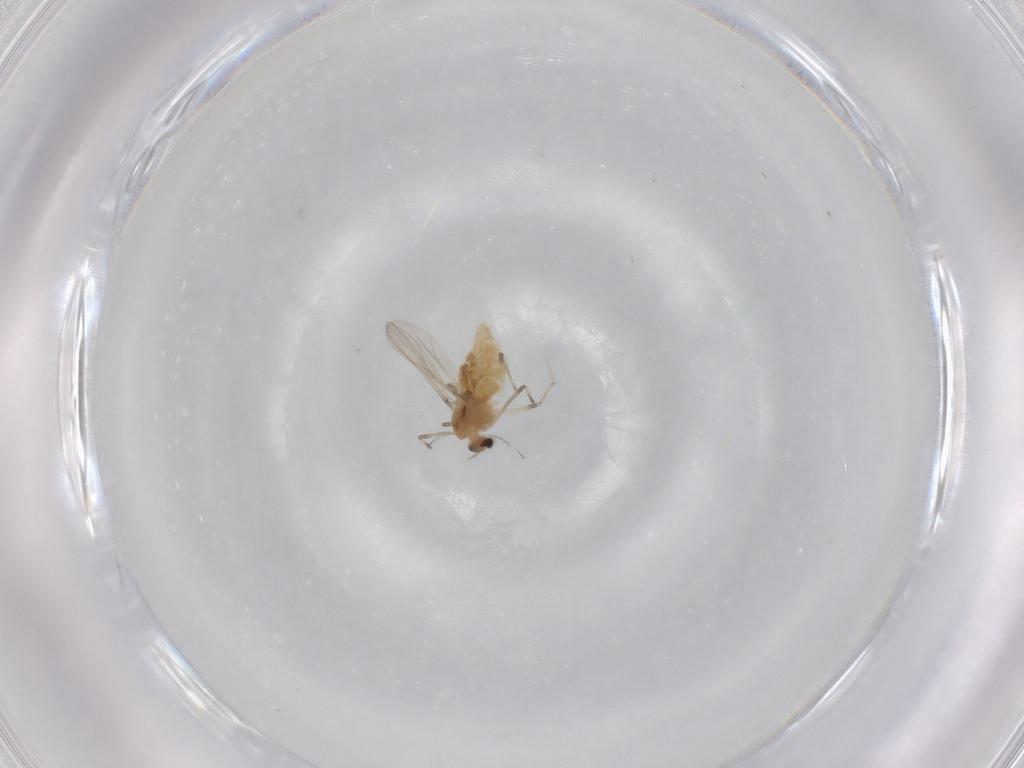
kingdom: Animalia
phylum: Arthropoda
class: Insecta
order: Diptera
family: Chironomidae
